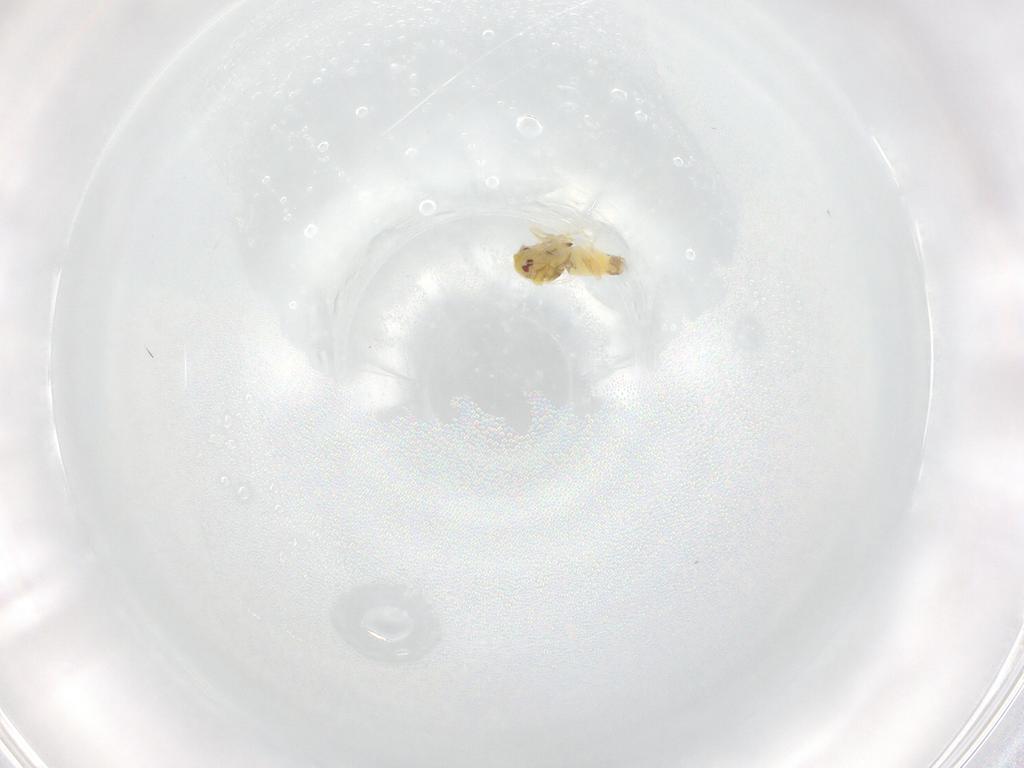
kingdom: Animalia
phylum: Arthropoda
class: Insecta
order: Hemiptera
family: Aleyrodidae
